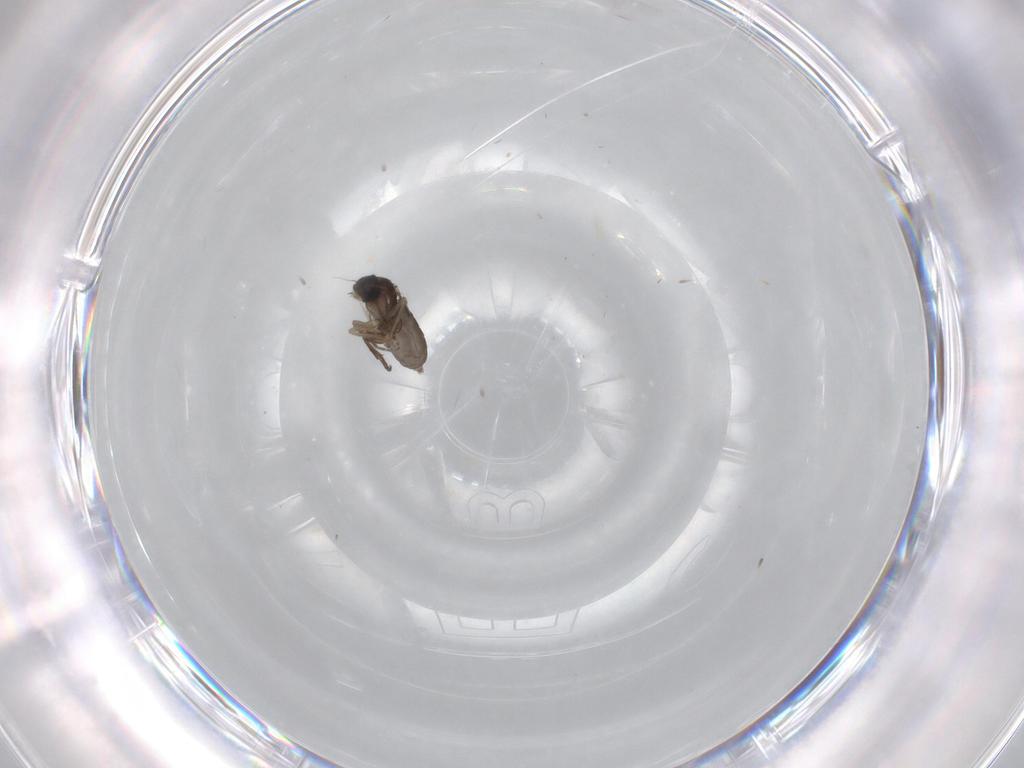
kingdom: Animalia
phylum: Arthropoda
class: Insecta
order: Diptera
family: Phoridae
